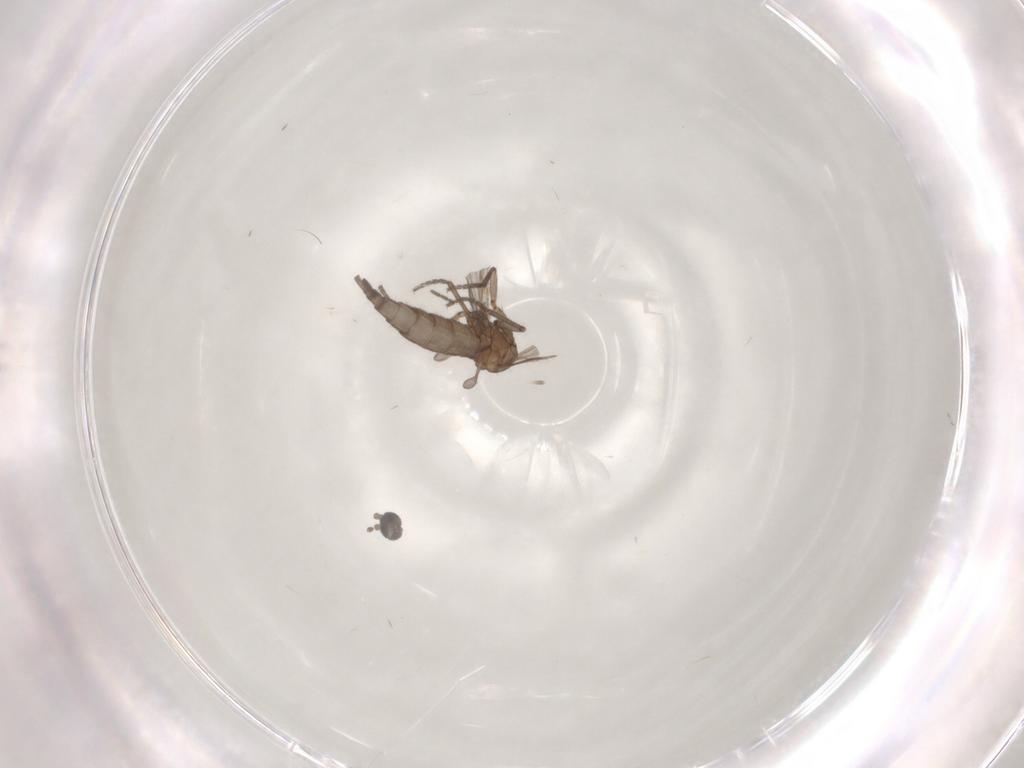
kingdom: Animalia
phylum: Arthropoda
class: Insecta
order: Diptera
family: Sciaridae
